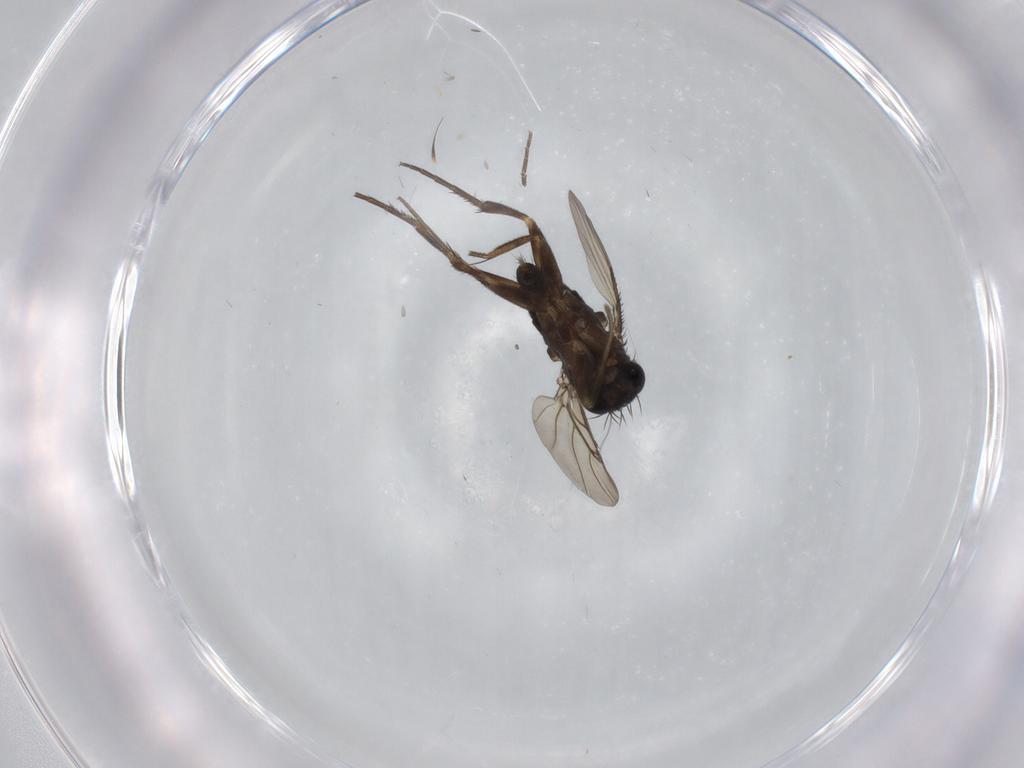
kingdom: Animalia
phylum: Arthropoda
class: Insecta
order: Diptera
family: Phoridae
